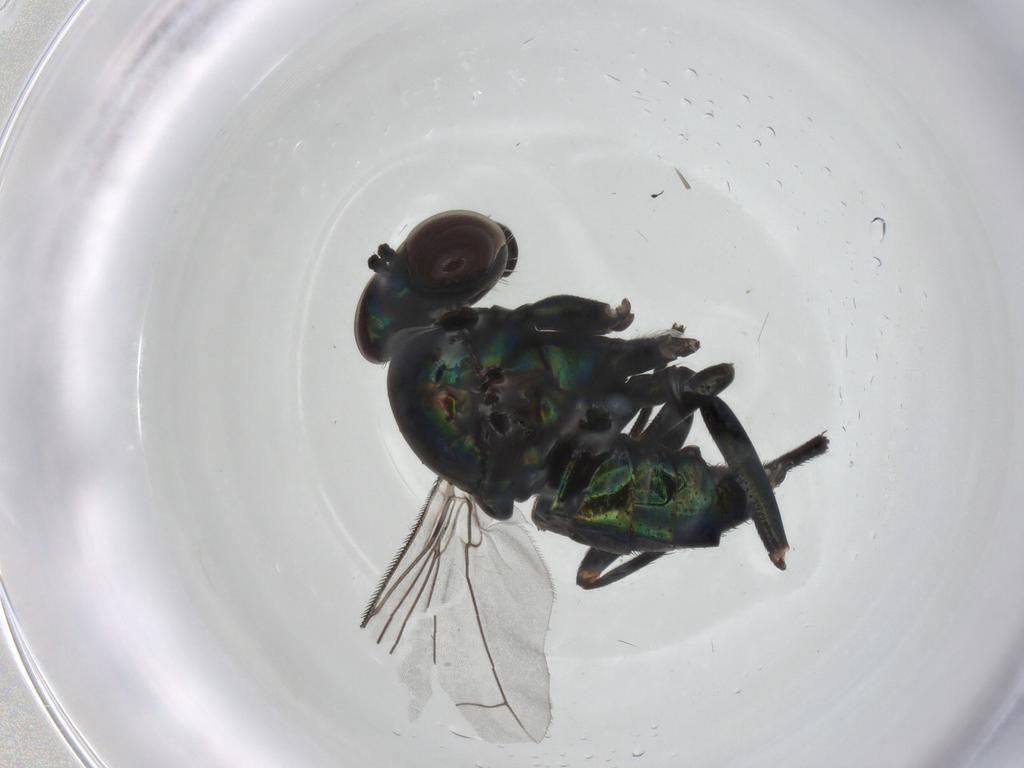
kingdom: Animalia
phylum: Arthropoda
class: Insecta
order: Diptera
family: Dolichopodidae
